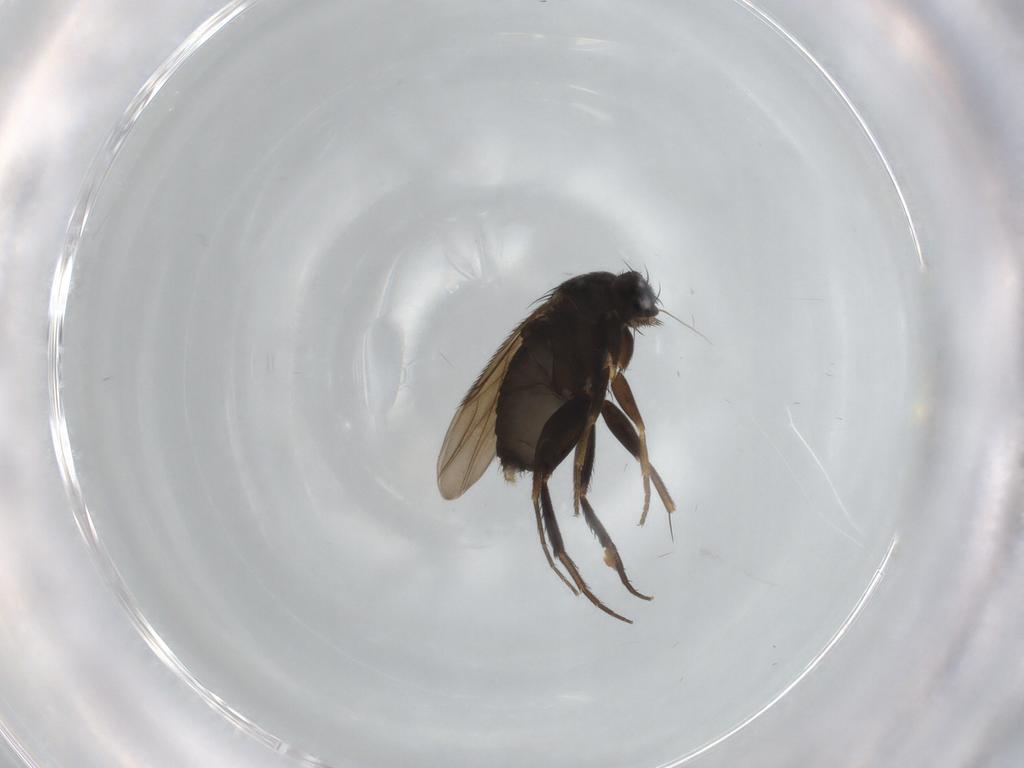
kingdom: Animalia
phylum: Arthropoda
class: Insecta
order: Diptera
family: Phoridae
